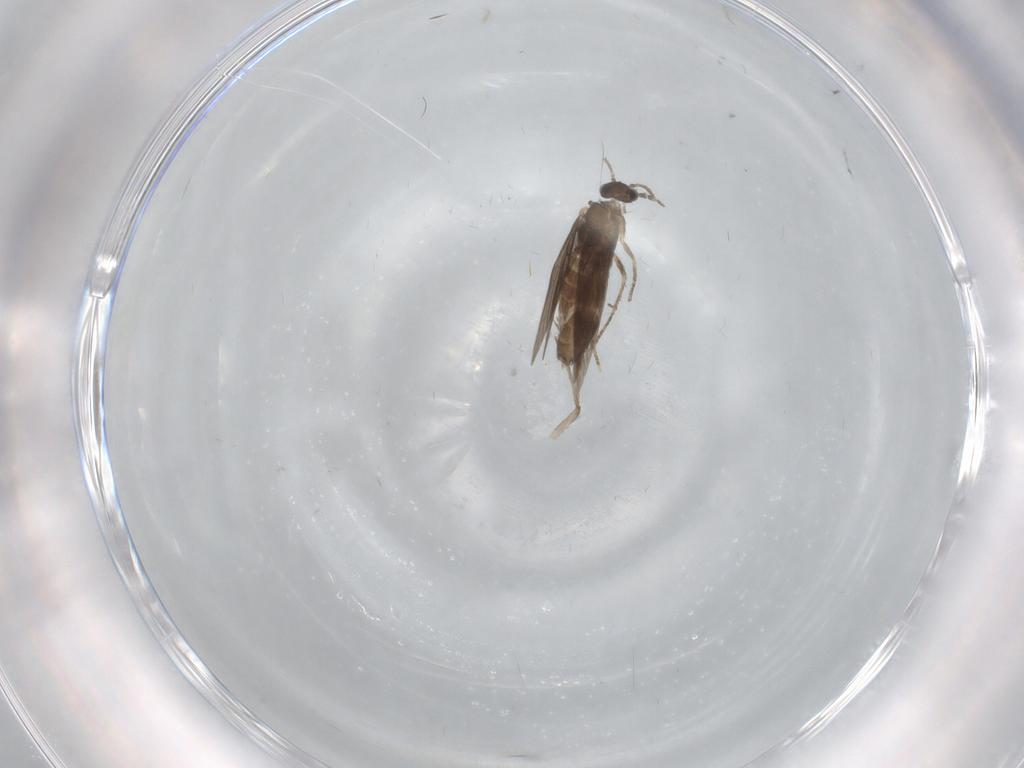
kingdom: Animalia
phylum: Arthropoda
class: Insecta
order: Trichoptera
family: Hydroptilidae
